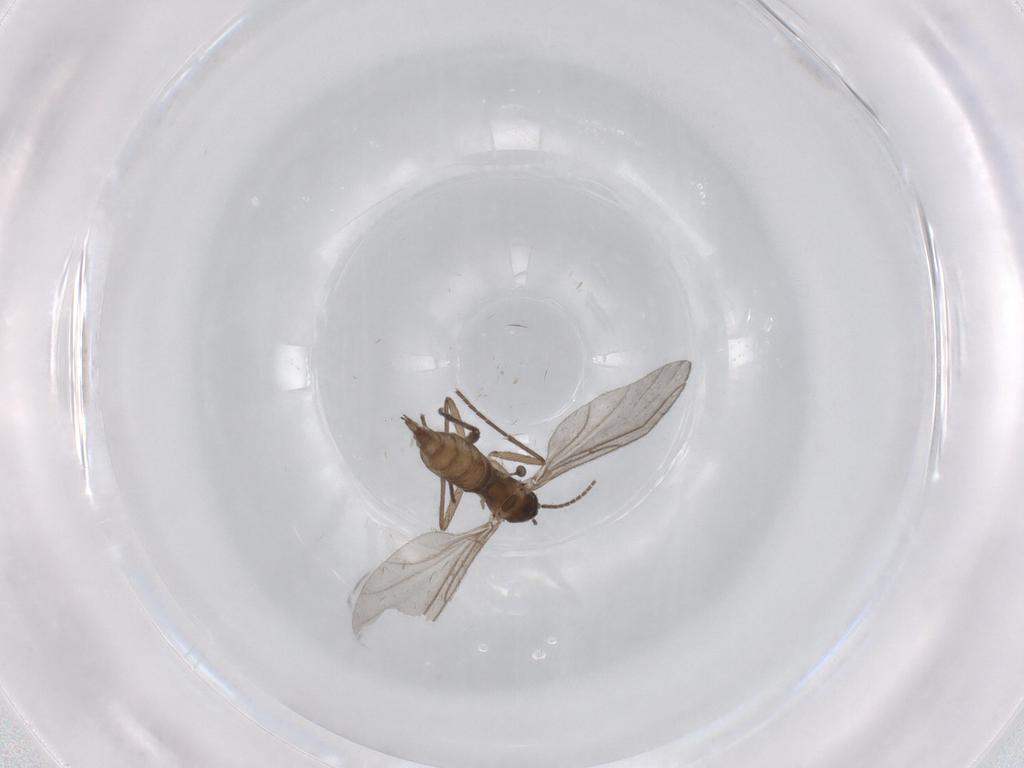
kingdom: Animalia
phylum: Arthropoda
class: Insecta
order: Diptera
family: Sciaridae
